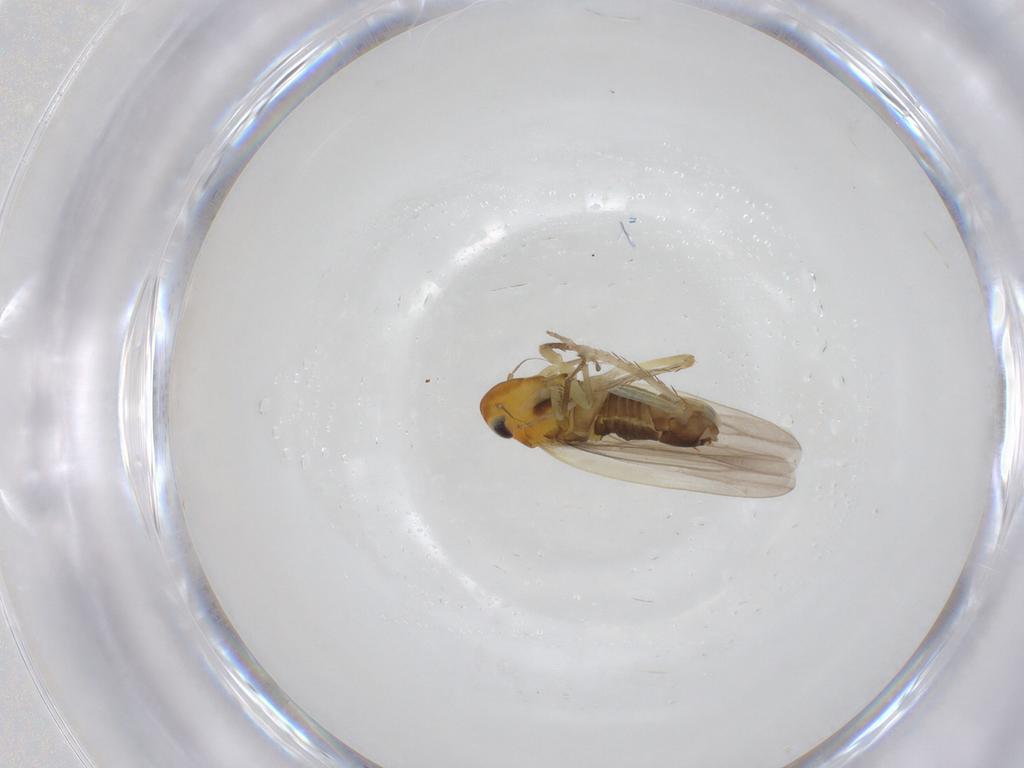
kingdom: Animalia
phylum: Arthropoda
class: Insecta
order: Hemiptera
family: Cicadellidae
